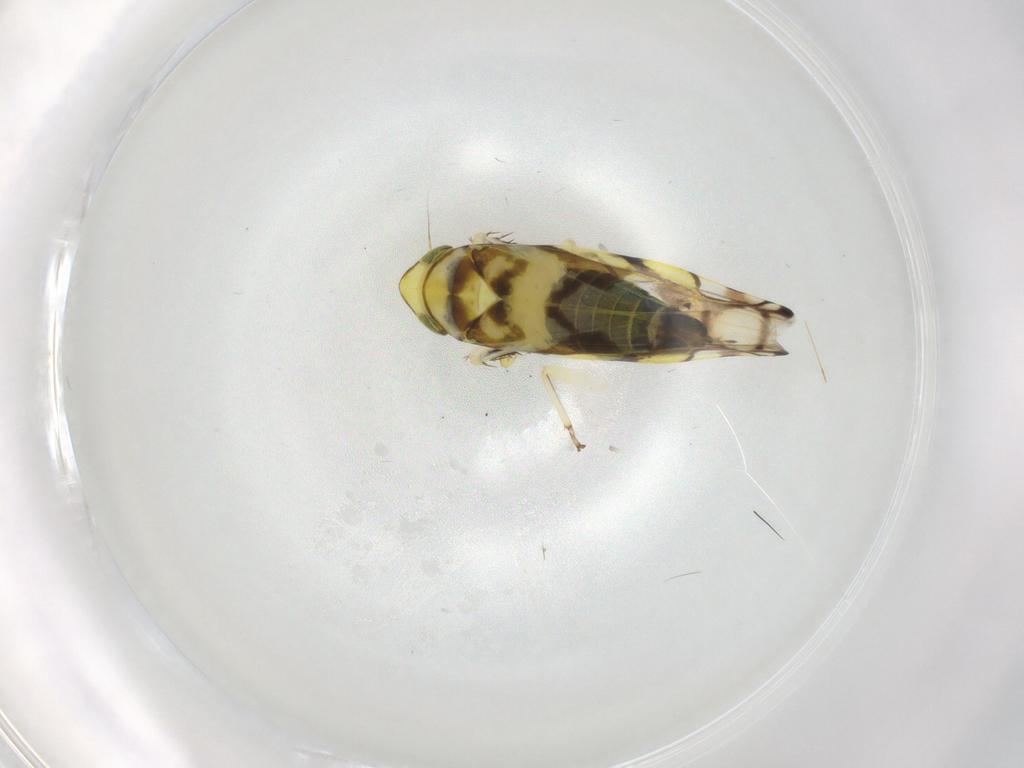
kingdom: Animalia
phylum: Arthropoda
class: Insecta
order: Hemiptera
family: Cicadellidae
